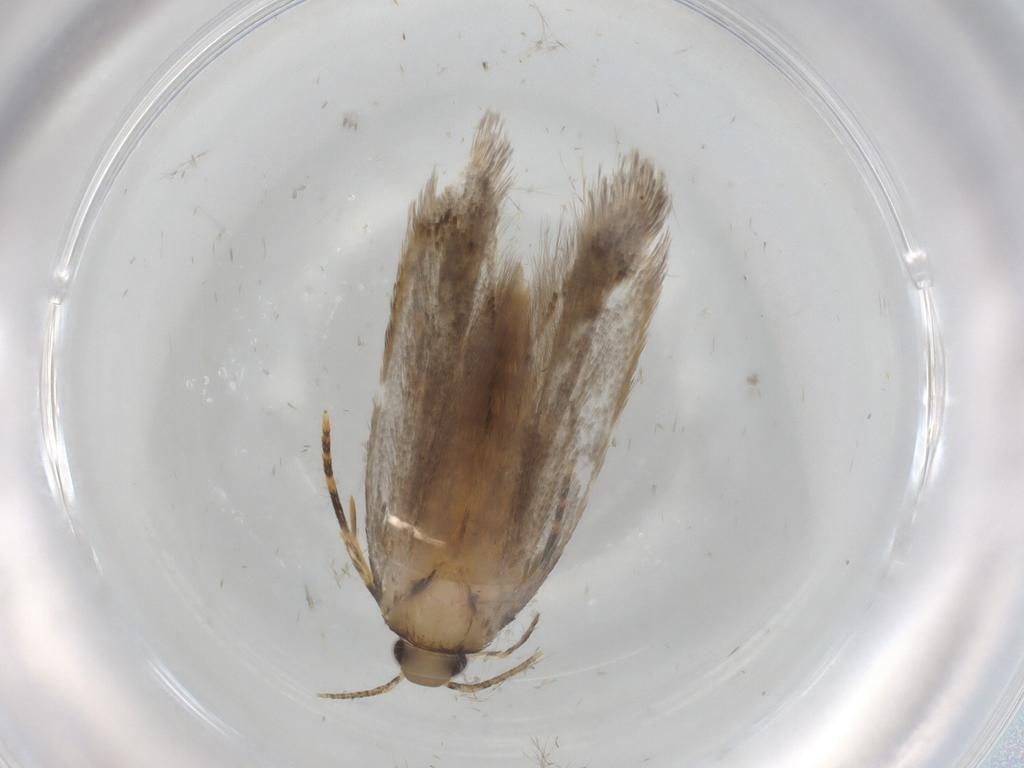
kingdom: Animalia
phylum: Arthropoda
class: Insecta
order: Lepidoptera
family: Autostichidae
